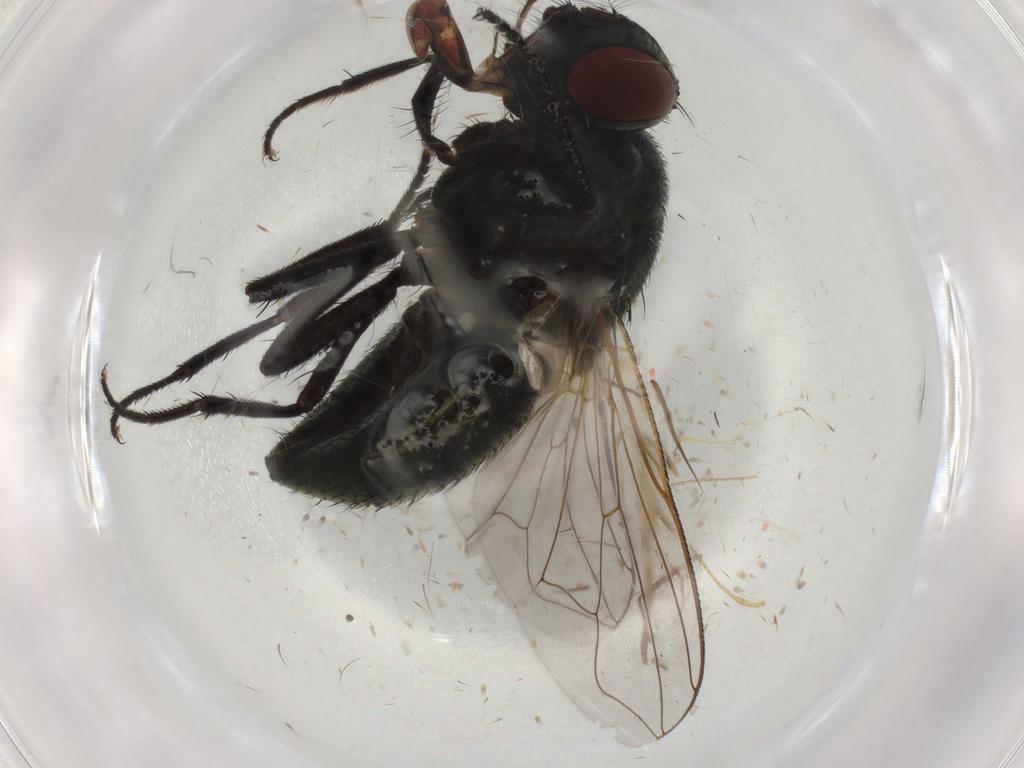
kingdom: Animalia
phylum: Arthropoda
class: Insecta
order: Diptera
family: Muscidae
